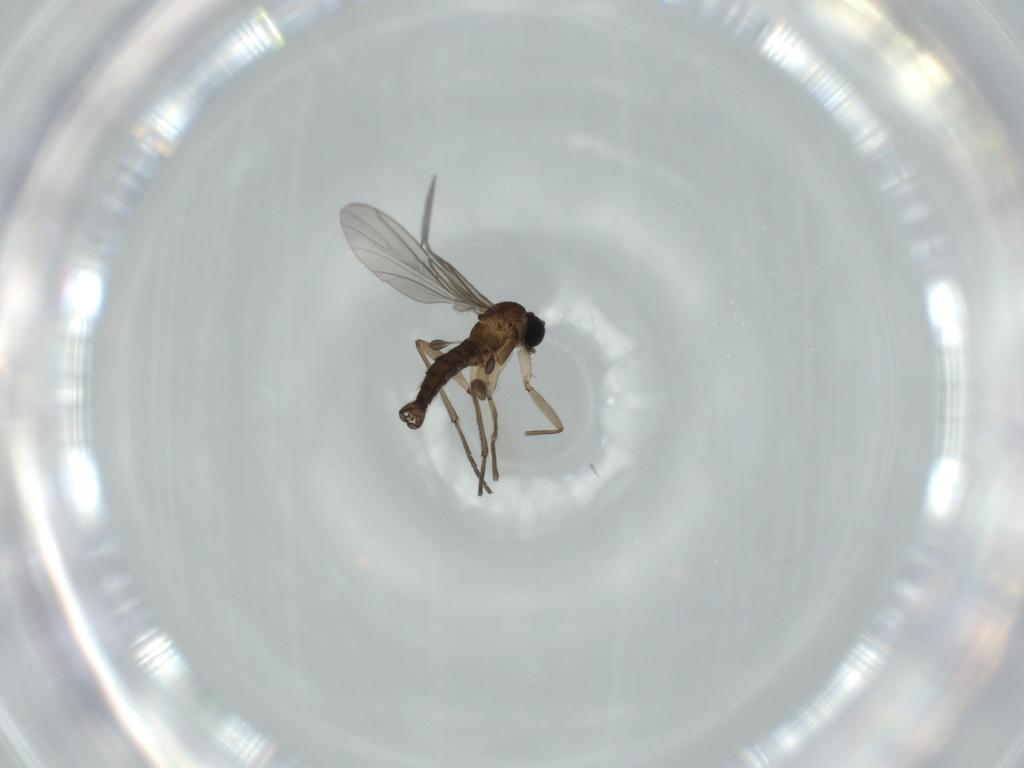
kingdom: Animalia
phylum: Arthropoda
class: Insecta
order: Diptera
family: Sciaridae
